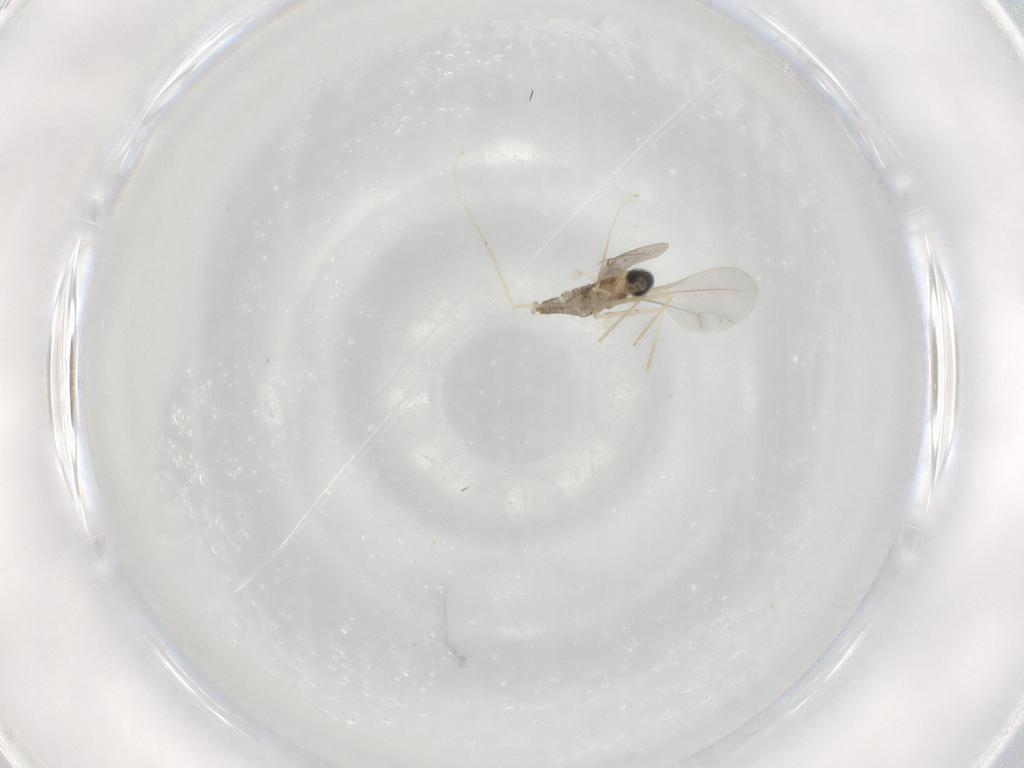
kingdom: Animalia
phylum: Arthropoda
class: Insecta
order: Diptera
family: Cecidomyiidae
